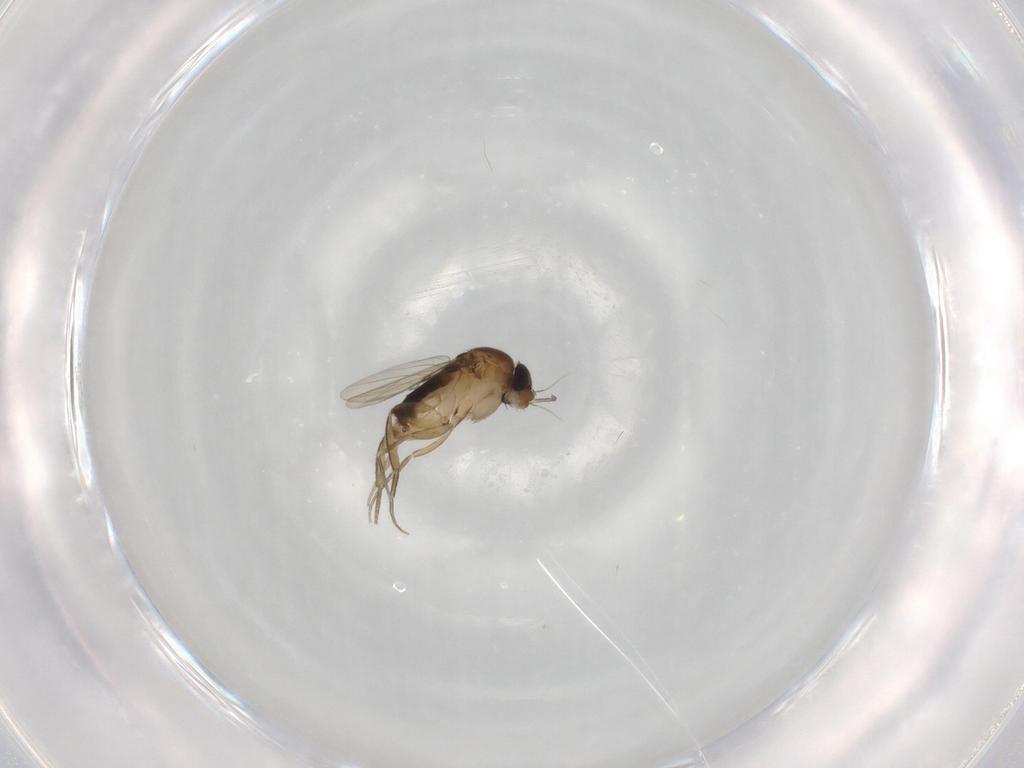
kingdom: Animalia
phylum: Arthropoda
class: Insecta
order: Diptera
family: Phoridae
